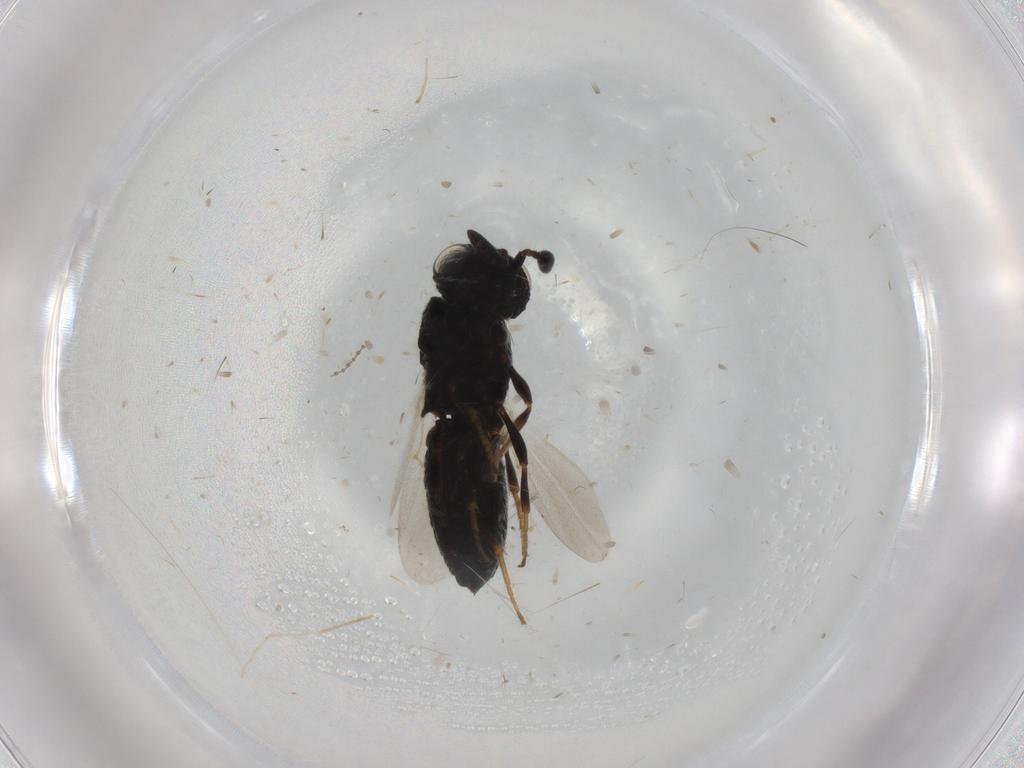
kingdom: Animalia
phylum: Arthropoda
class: Insecta
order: Hymenoptera
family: Scelionidae
